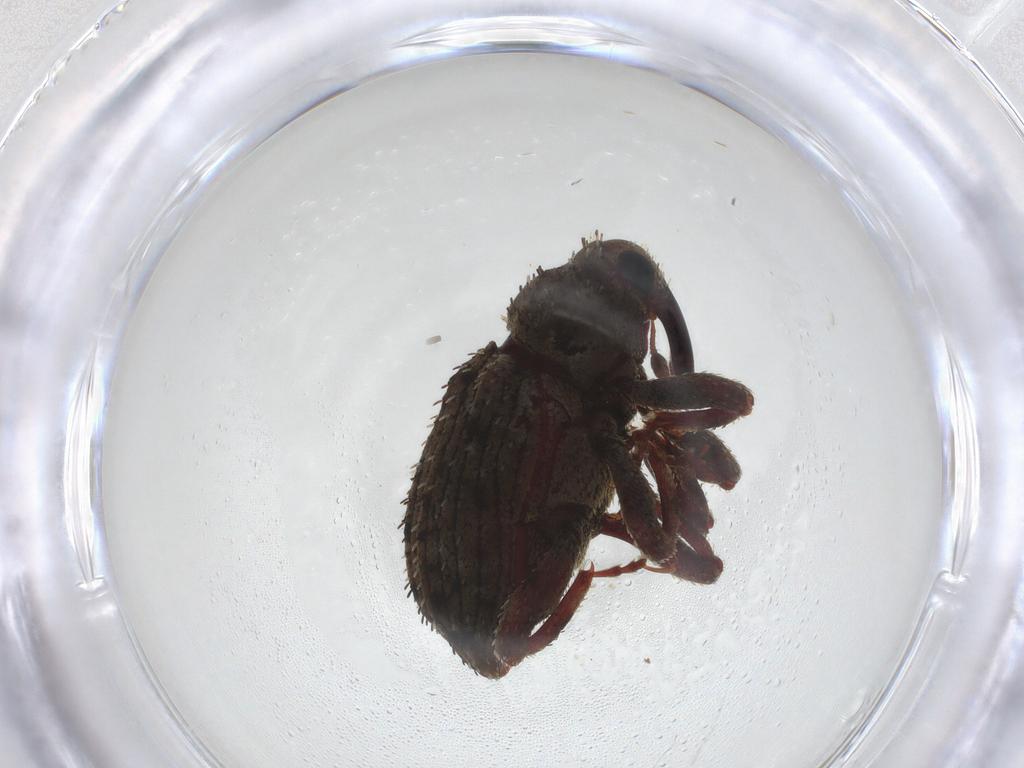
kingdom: Animalia
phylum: Arthropoda
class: Insecta
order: Coleoptera
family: Curculionidae
